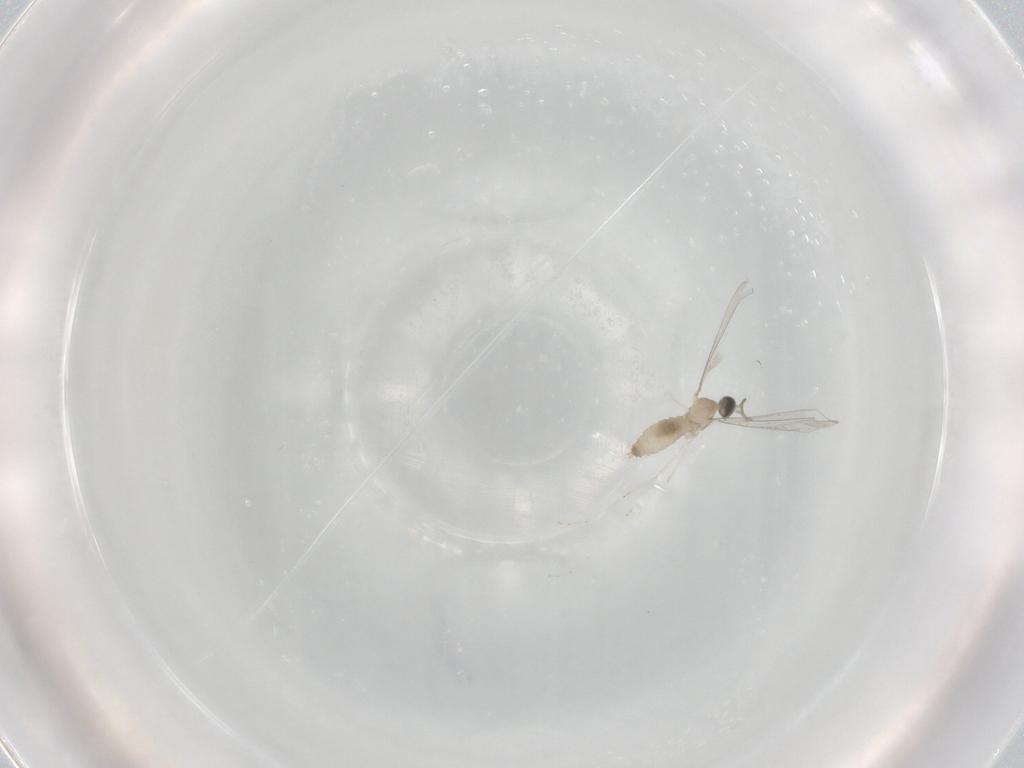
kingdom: Animalia
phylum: Arthropoda
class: Insecta
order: Diptera
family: Cecidomyiidae
